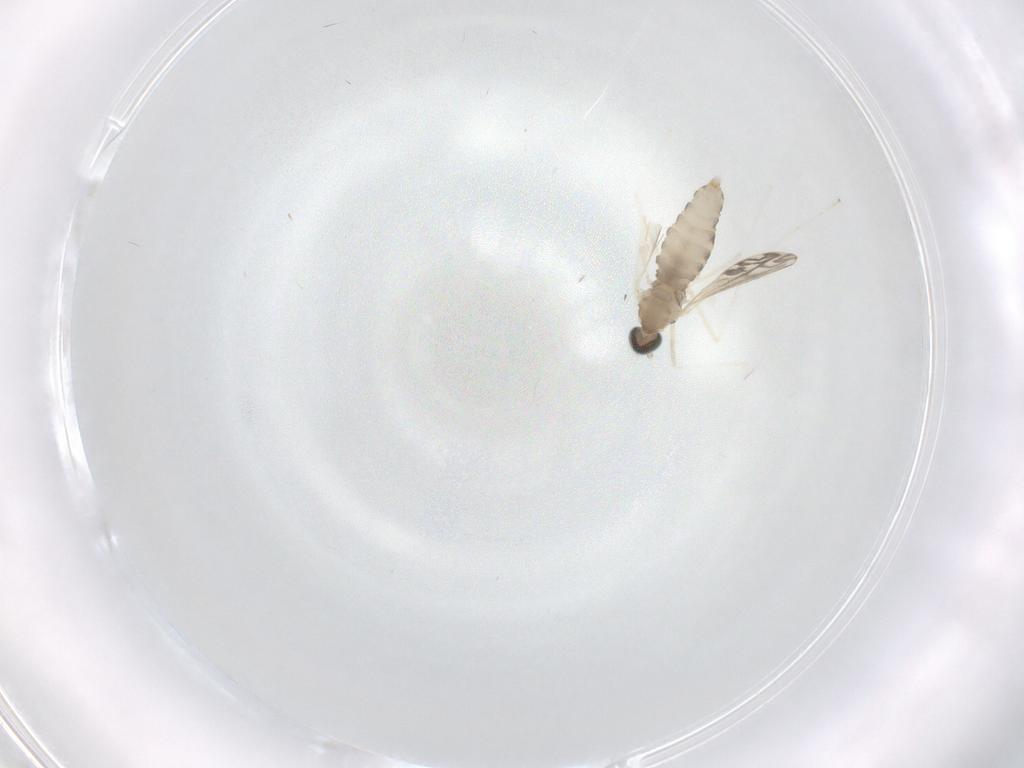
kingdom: Animalia
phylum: Arthropoda
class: Insecta
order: Diptera
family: Cecidomyiidae
